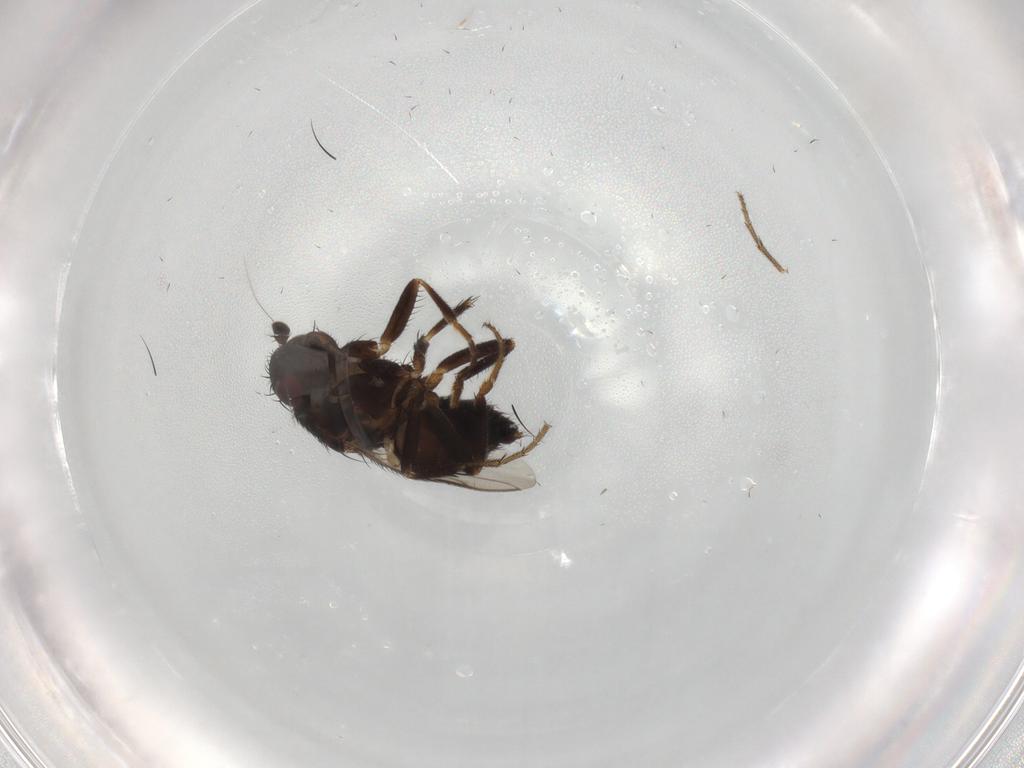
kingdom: Animalia
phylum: Arthropoda
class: Insecta
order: Diptera
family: Sphaeroceridae
